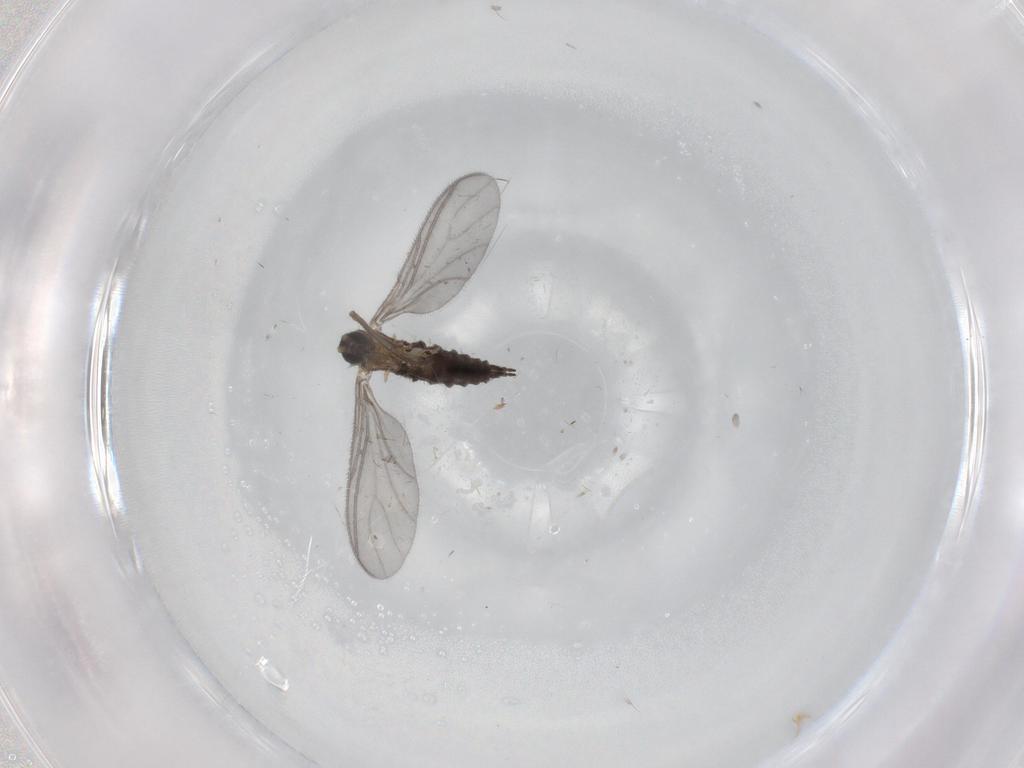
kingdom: Animalia
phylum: Arthropoda
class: Insecta
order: Diptera
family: Sciaridae
